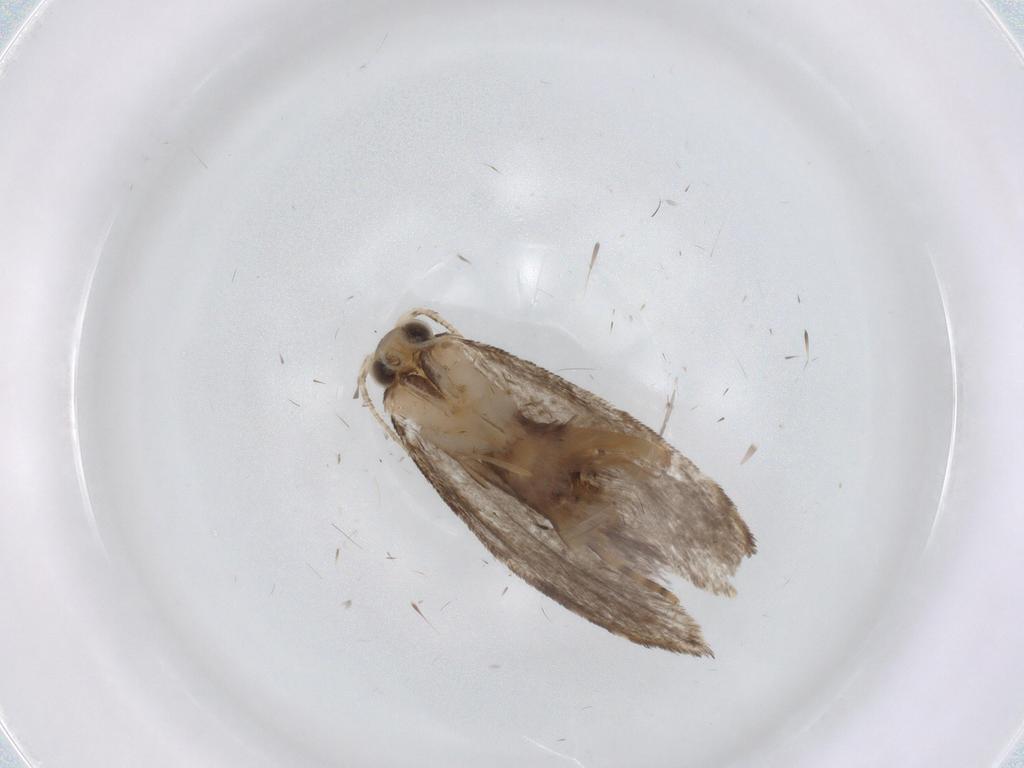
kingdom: Animalia
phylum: Arthropoda
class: Insecta
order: Lepidoptera
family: Tineidae
